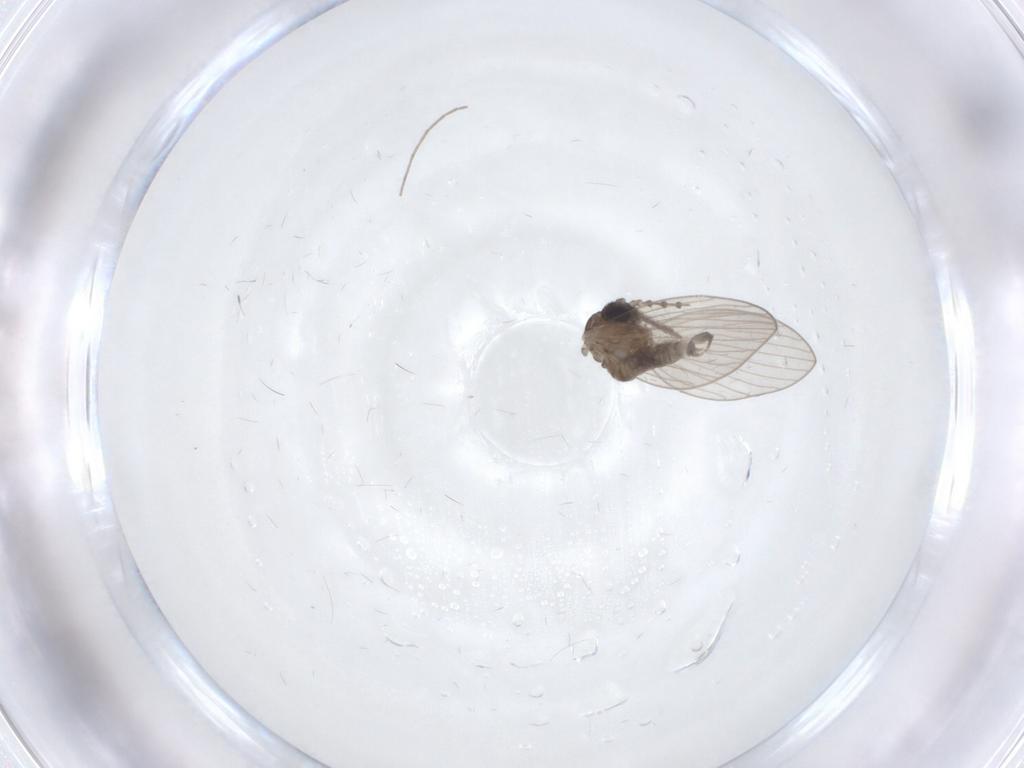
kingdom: Animalia
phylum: Arthropoda
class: Insecta
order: Diptera
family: Psychodidae
